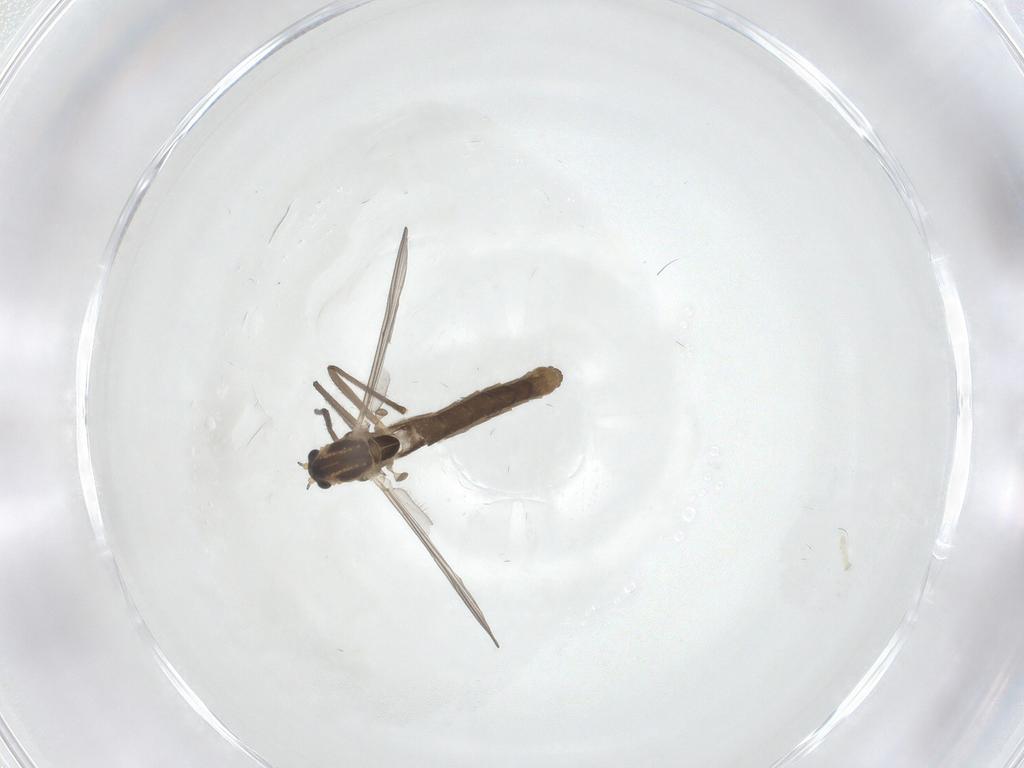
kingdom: Animalia
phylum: Arthropoda
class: Insecta
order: Diptera
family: Chironomidae
